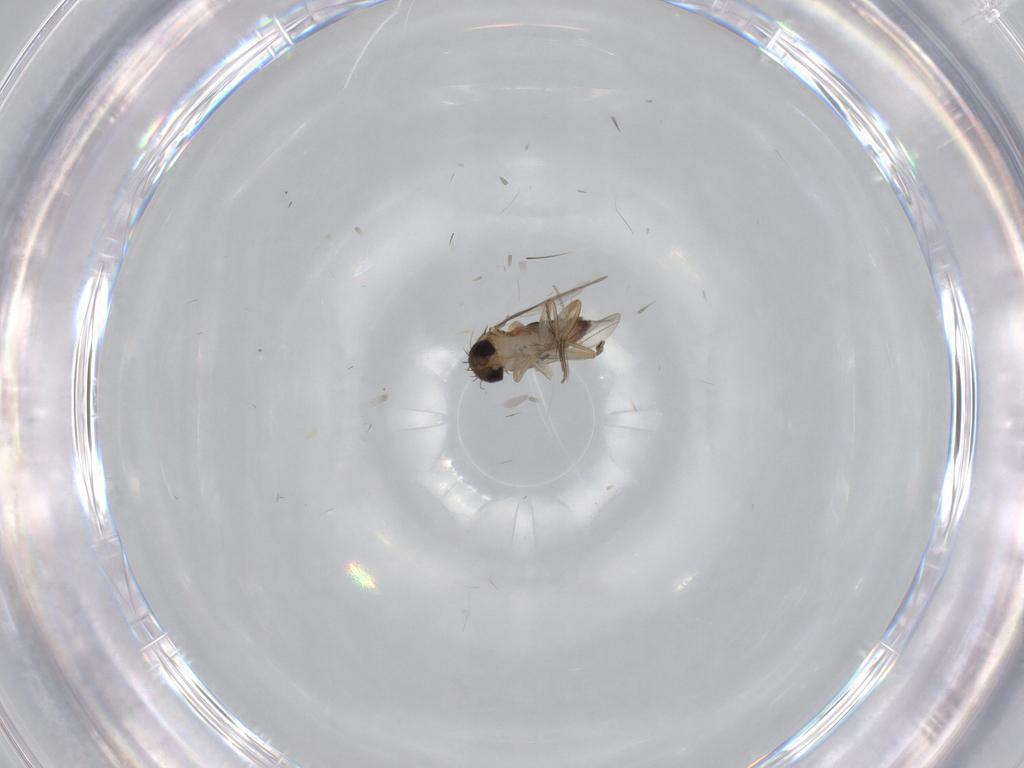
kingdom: Animalia
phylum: Arthropoda
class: Insecta
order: Diptera
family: Phoridae
